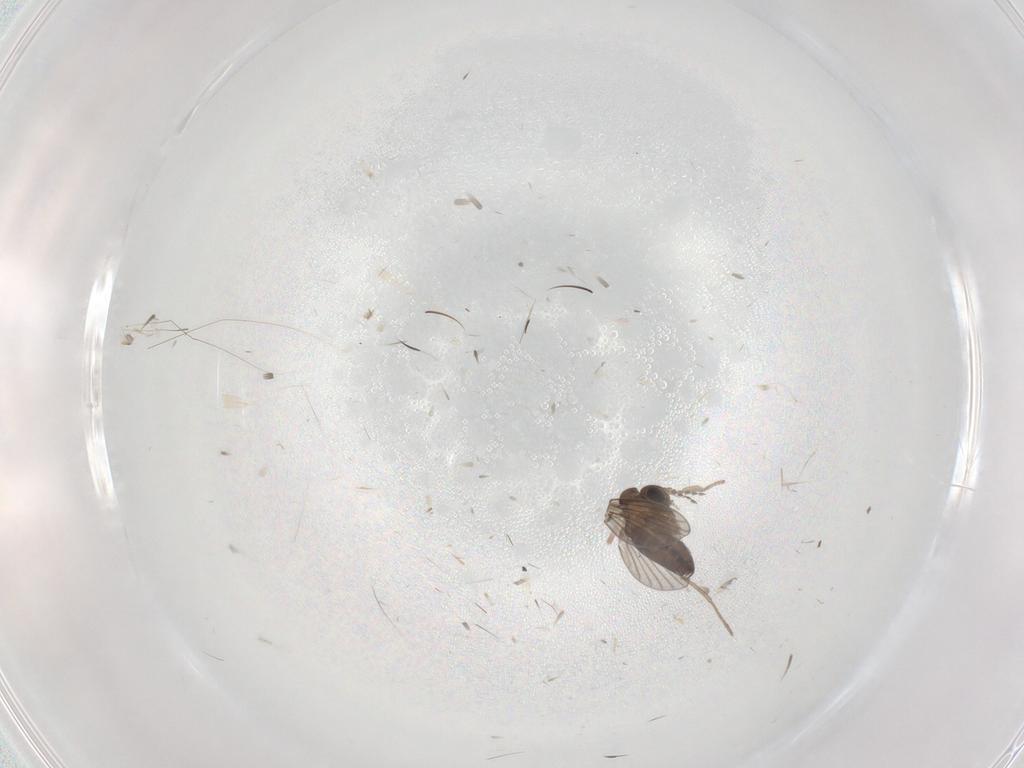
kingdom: Animalia
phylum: Arthropoda
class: Insecta
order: Diptera
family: Psychodidae
